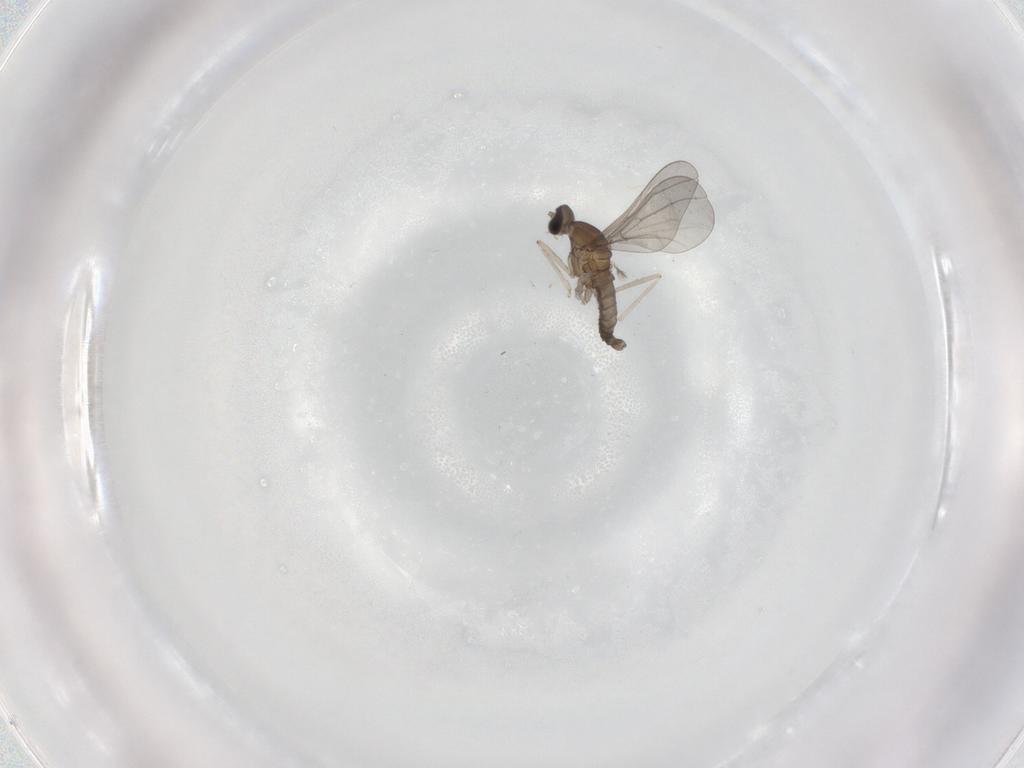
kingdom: Animalia
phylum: Arthropoda
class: Insecta
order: Diptera
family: Cecidomyiidae
